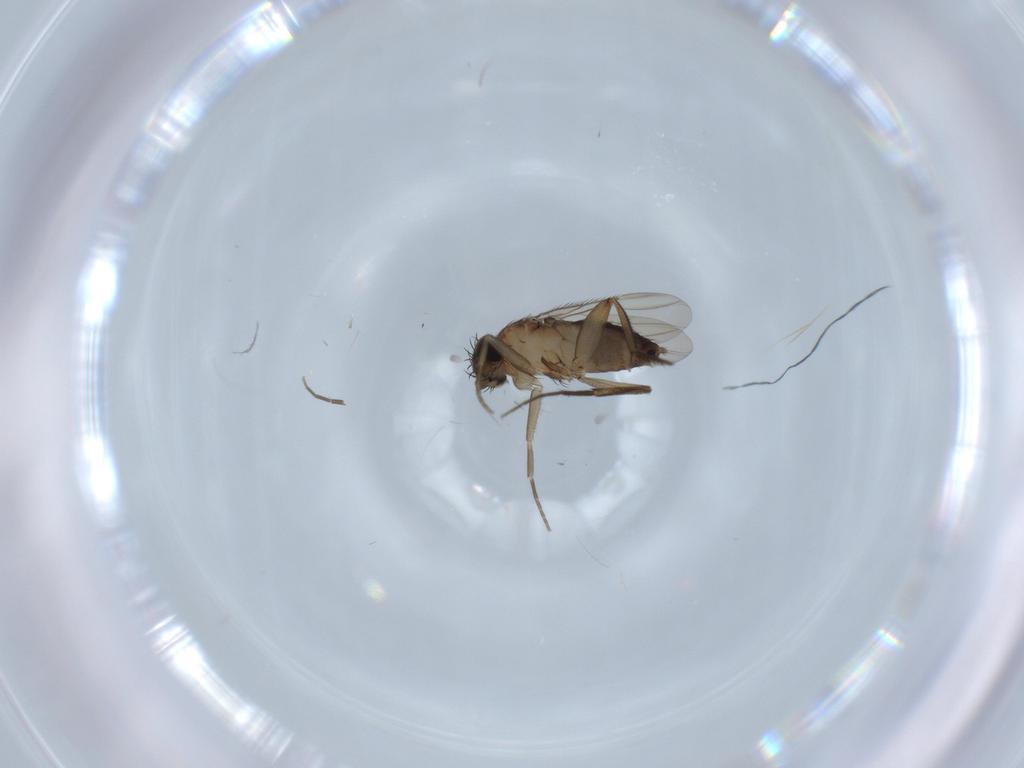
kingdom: Animalia
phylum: Arthropoda
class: Insecta
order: Diptera
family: Phoridae
